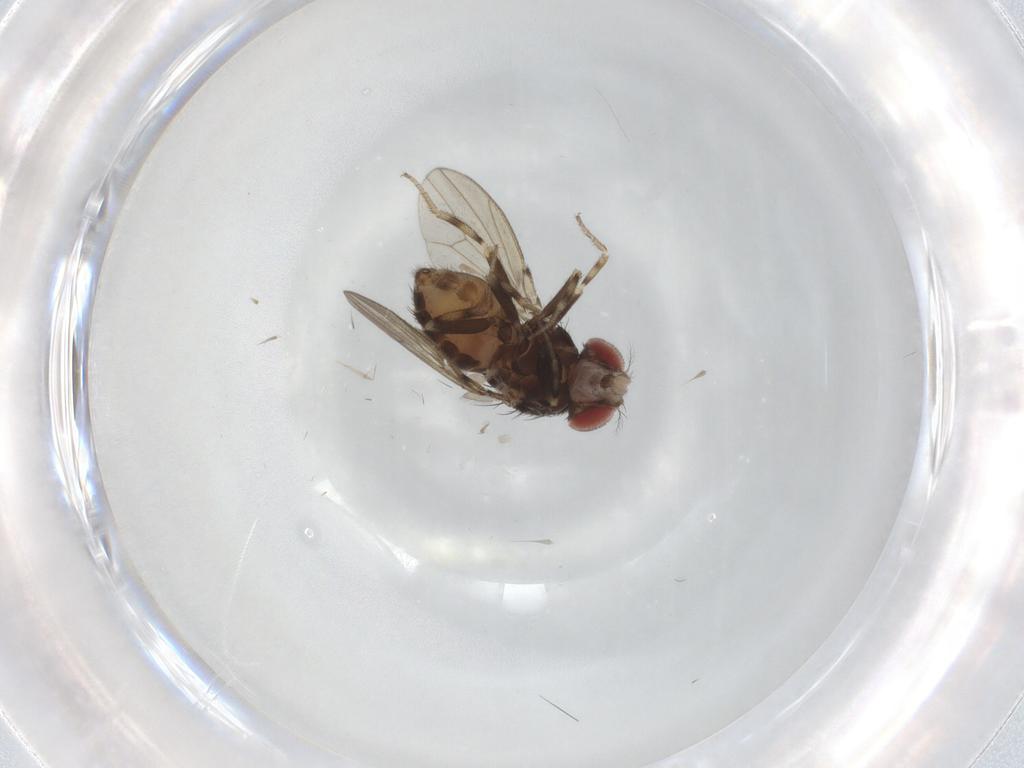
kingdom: Animalia
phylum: Arthropoda
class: Insecta
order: Diptera
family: Drosophilidae
